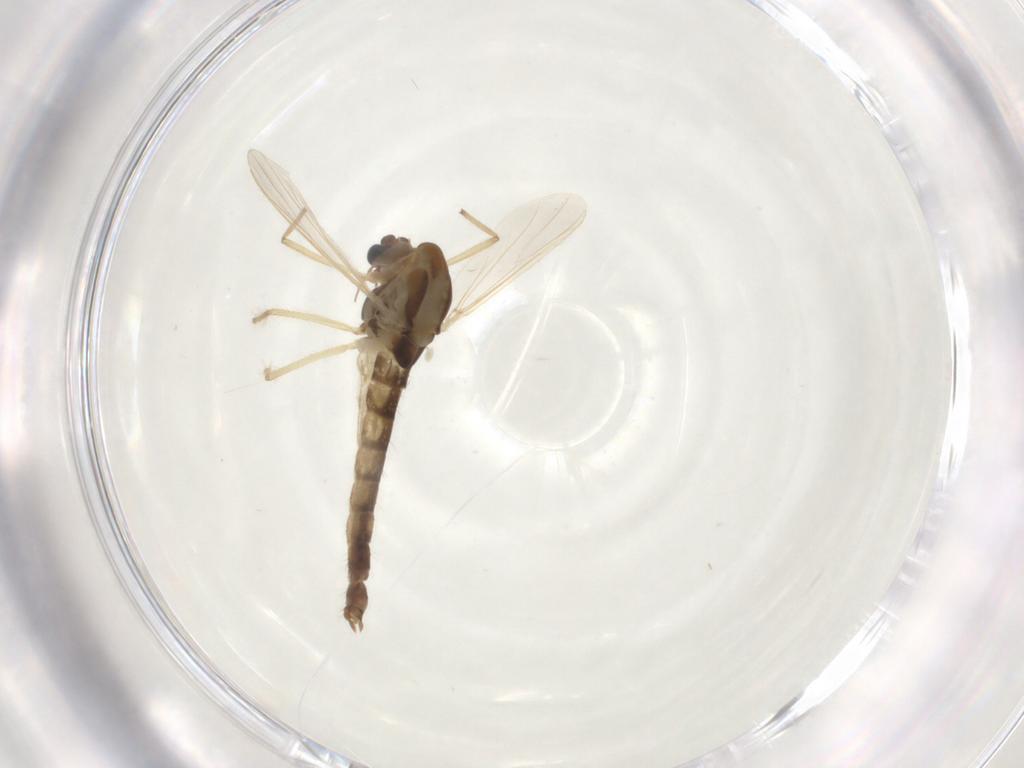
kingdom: Animalia
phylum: Arthropoda
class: Insecta
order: Diptera
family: Chironomidae
